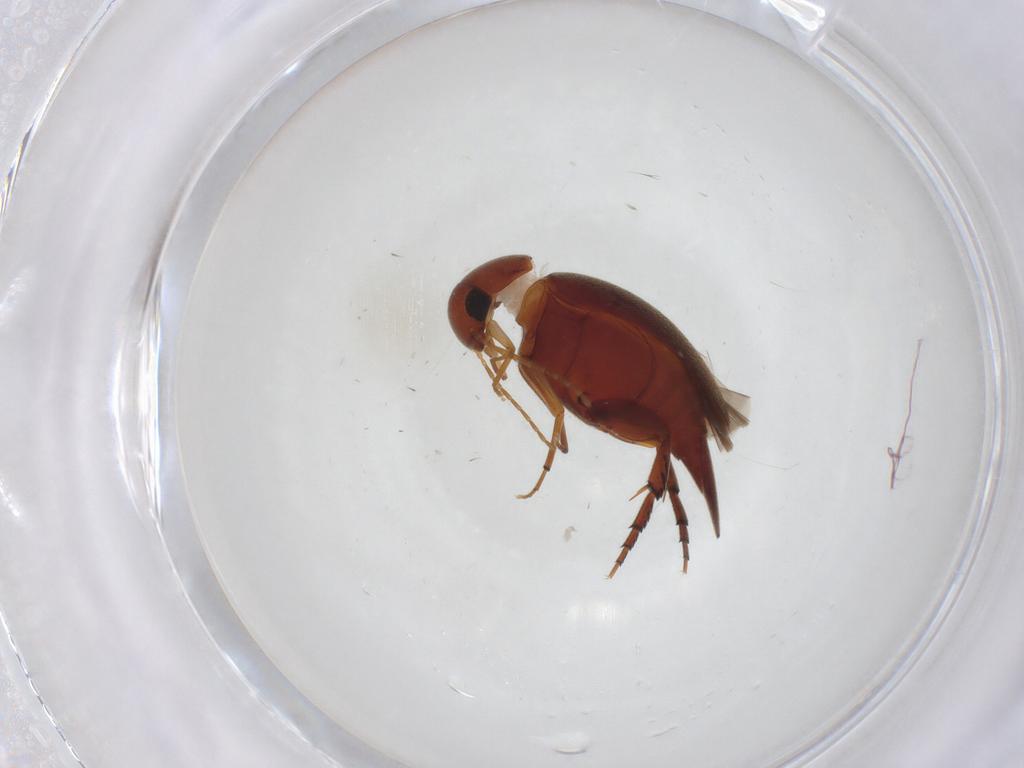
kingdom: Animalia
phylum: Arthropoda
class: Insecta
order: Coleoptera
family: Mordellidae
